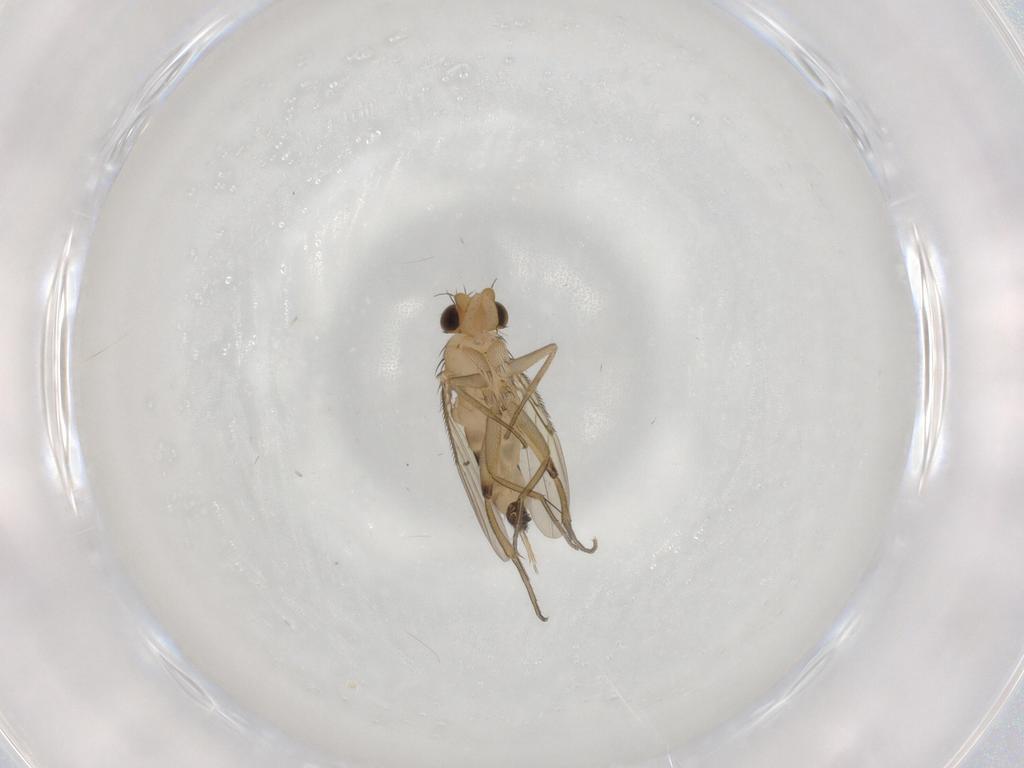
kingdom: Animalia
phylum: Arthropoda
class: Insecta
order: Diptera
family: Phoridae
